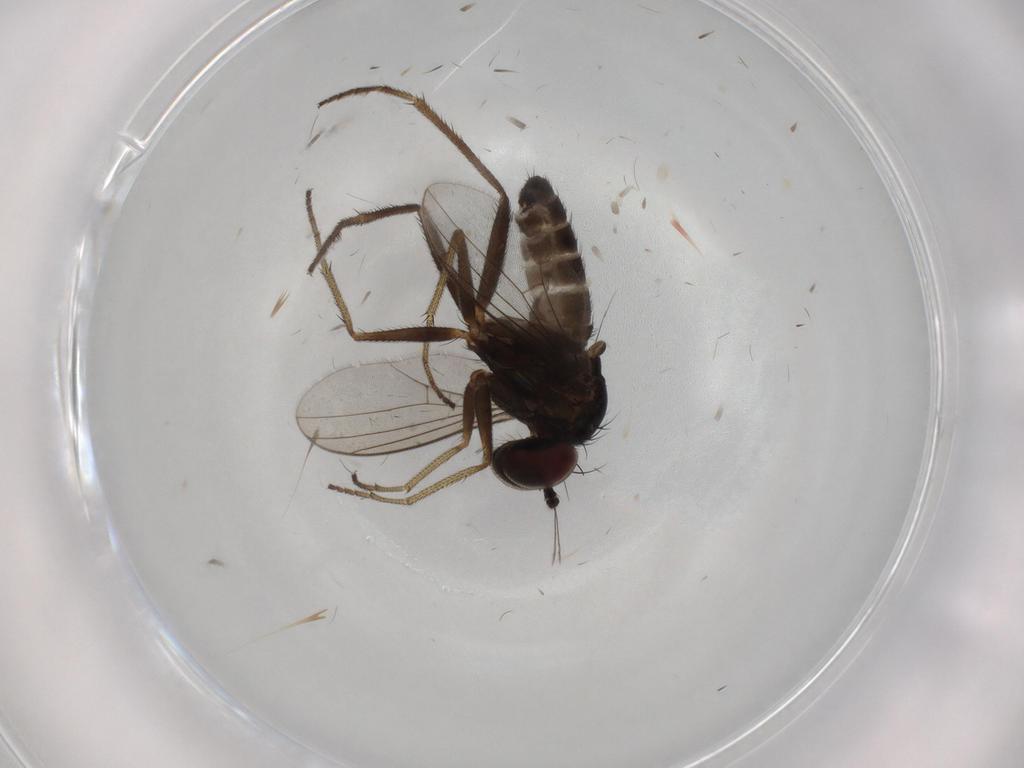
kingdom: Animalia
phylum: Arthropoda
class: Insecta
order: Diptera
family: Dolichopodidae
